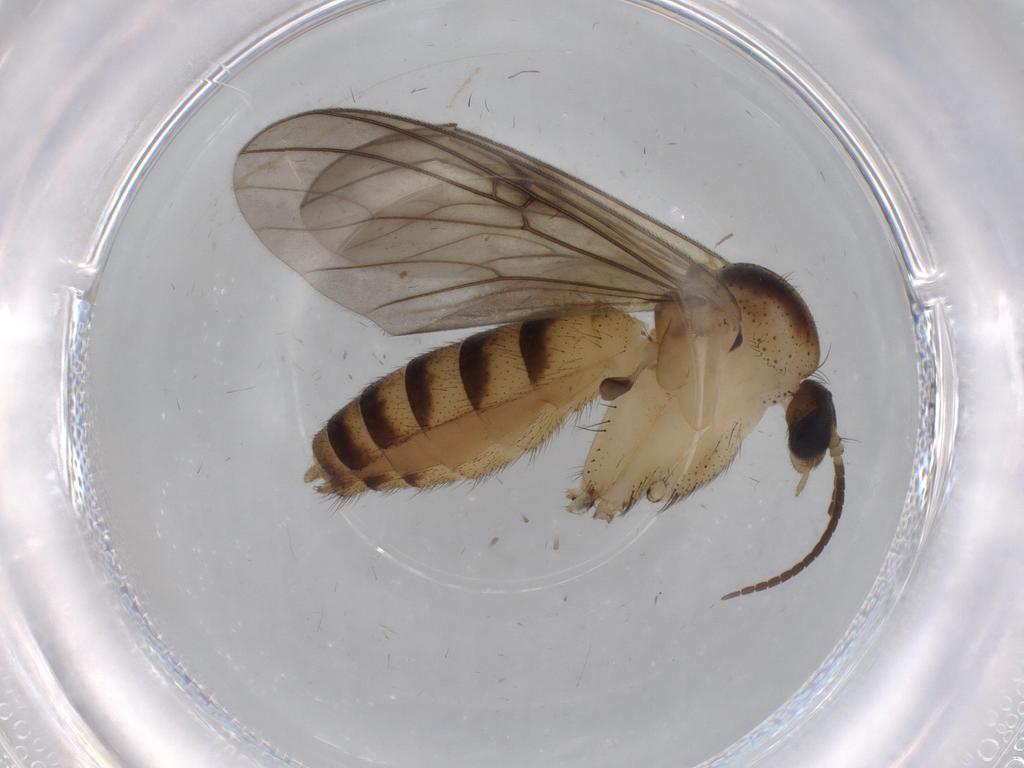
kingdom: Animalia
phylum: Arthropoda
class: Insecta
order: Diptera
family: Mycetophilidae
